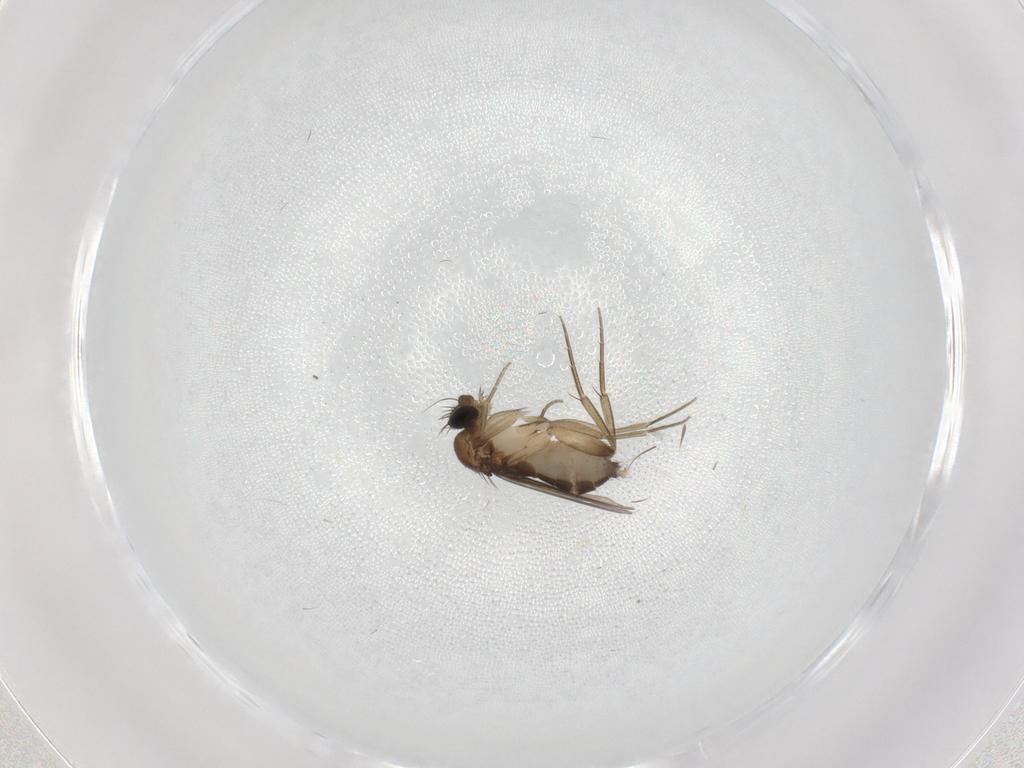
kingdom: Animalia
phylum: Arthropoda
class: Insecta
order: Diptera
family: Phoridae
